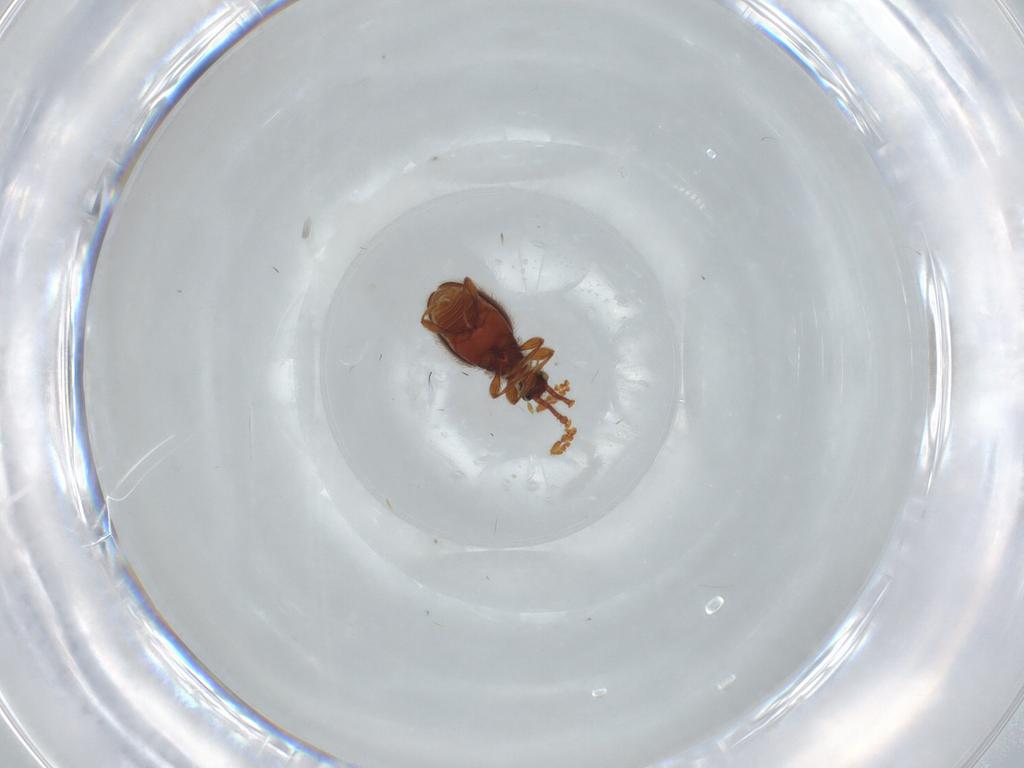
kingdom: Animalia
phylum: Arthropoda
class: Insecta
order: Coleoptera
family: Staphylinidae
